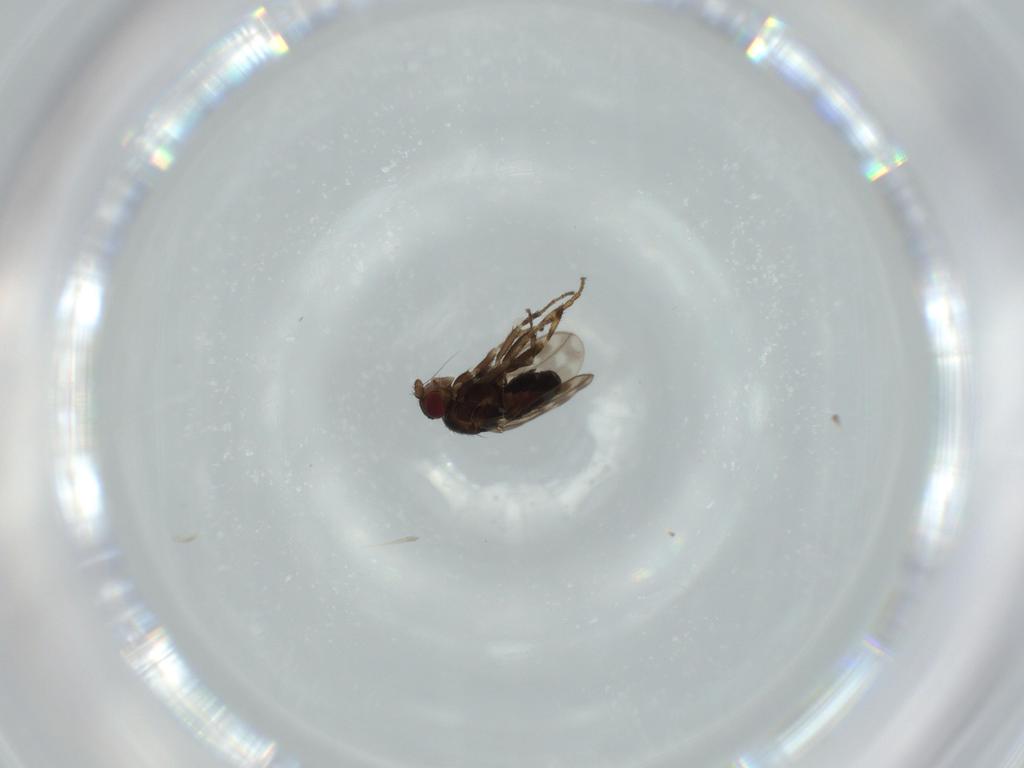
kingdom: Animalia
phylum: Arthropoda
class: Insecta
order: Diptera
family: Sphaeroceridae
